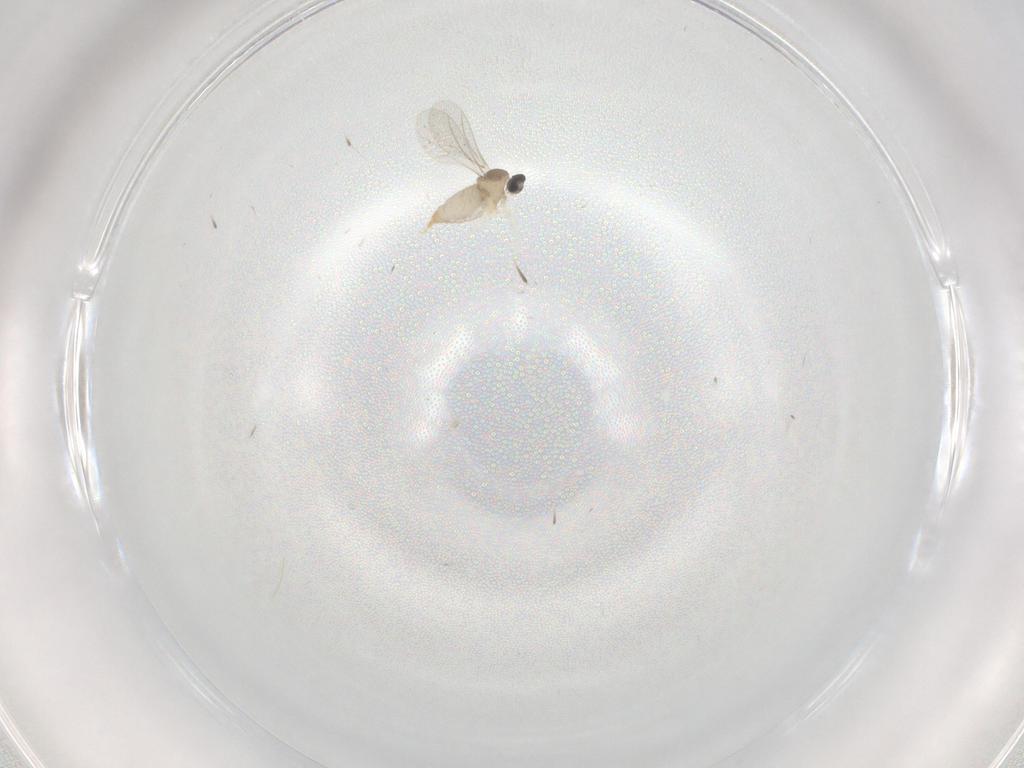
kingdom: Animalia
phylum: Arthropoda
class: Insecta
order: Diptera
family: Cecidomyiidae
